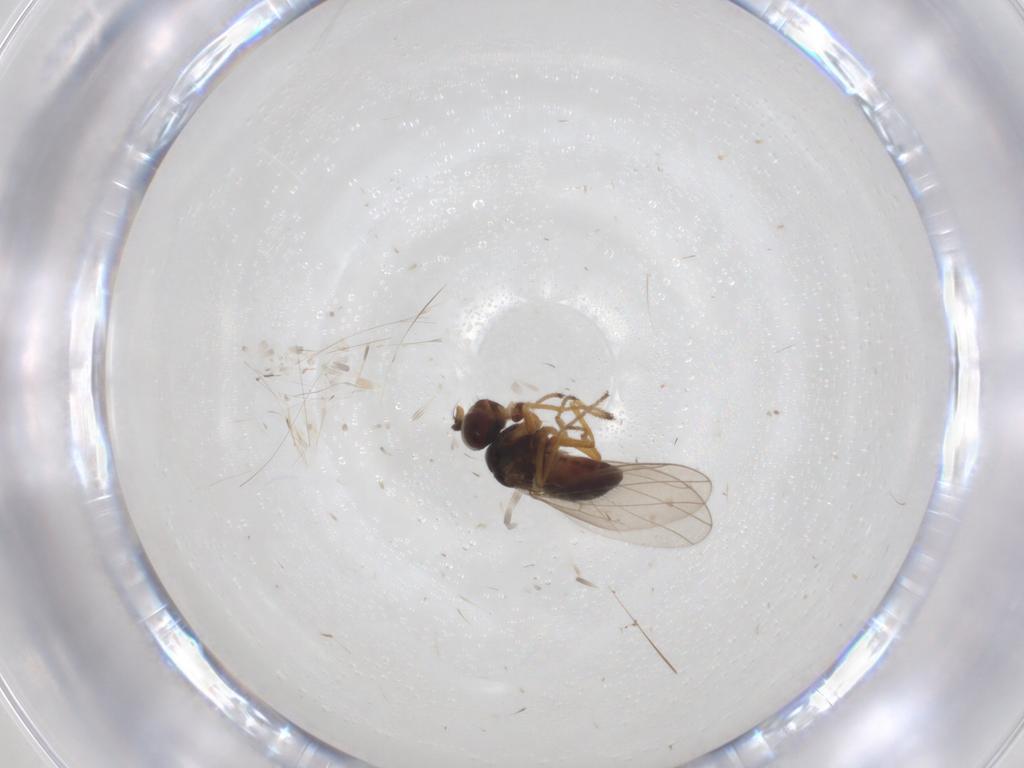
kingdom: Animalia
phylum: Arthropoda
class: Insecta
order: Diptera
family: Ephydridae
